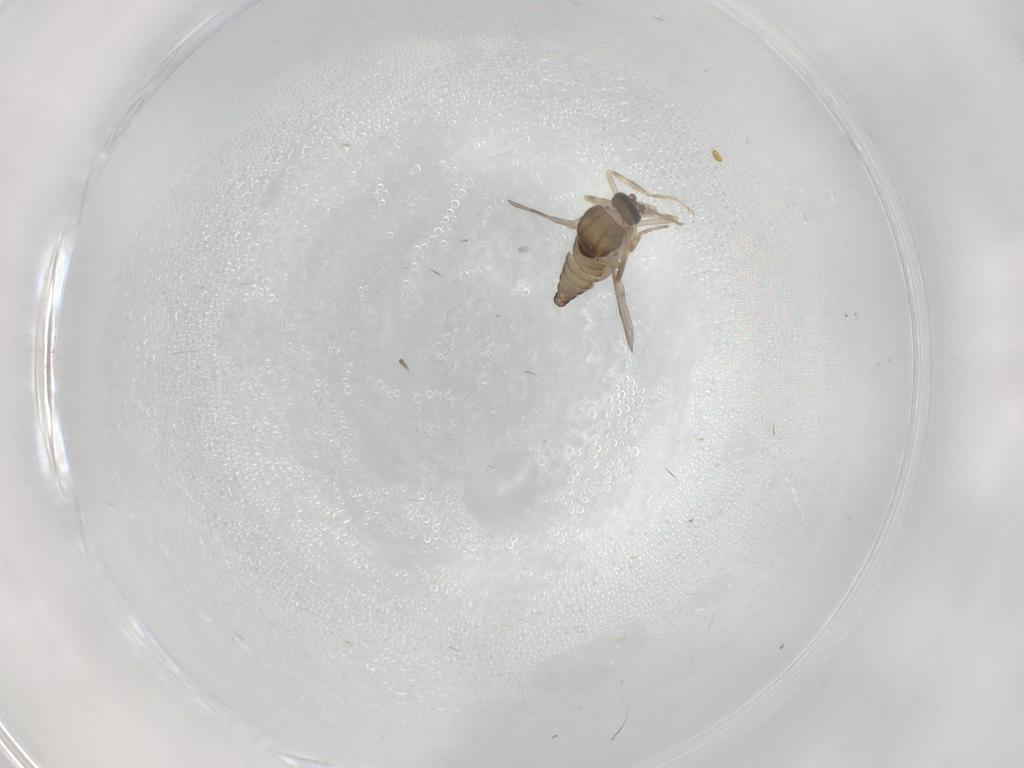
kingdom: Animalia
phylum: Arthropoda
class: Insecta
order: Diptera
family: Ceratopogonidae
